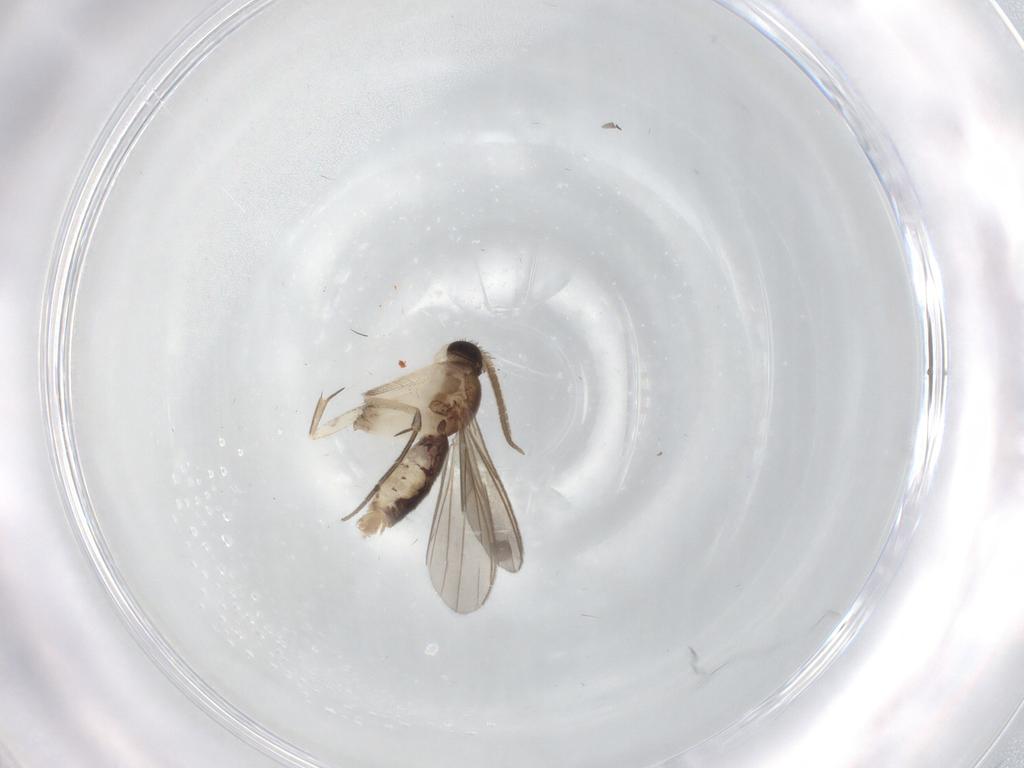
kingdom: Animalia
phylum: Arthropoda
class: Insecta
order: Diptera
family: Mycetophilidae
